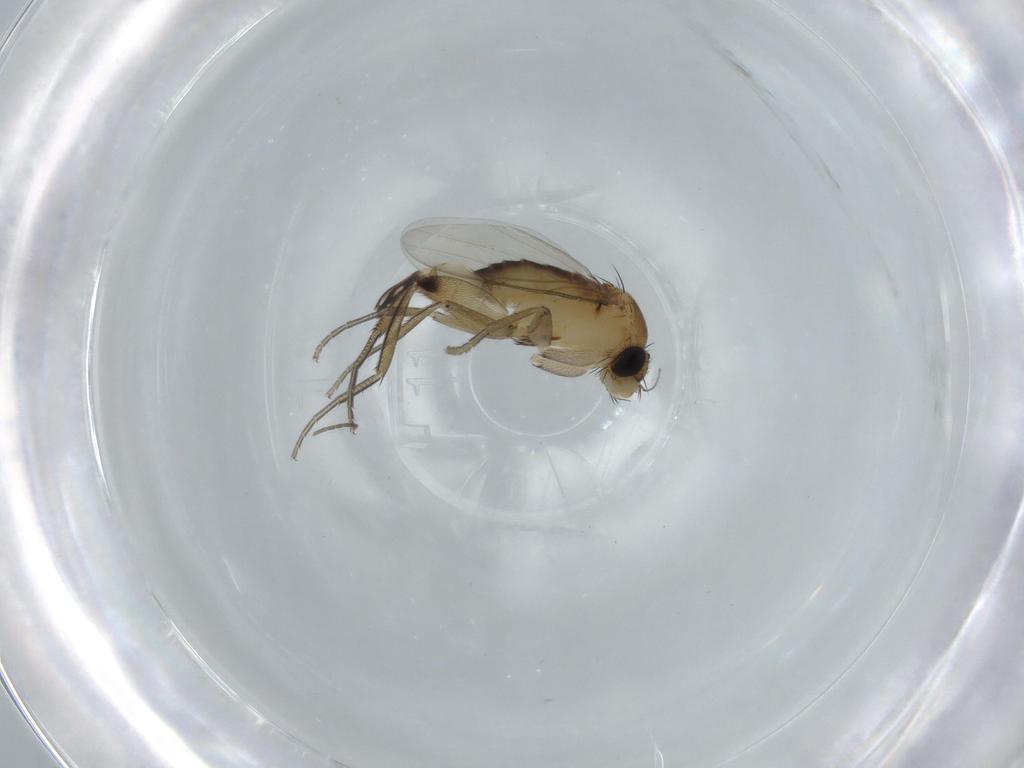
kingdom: Animalia
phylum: Arthropoda
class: Insecta
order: Diptera
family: Phoridae
